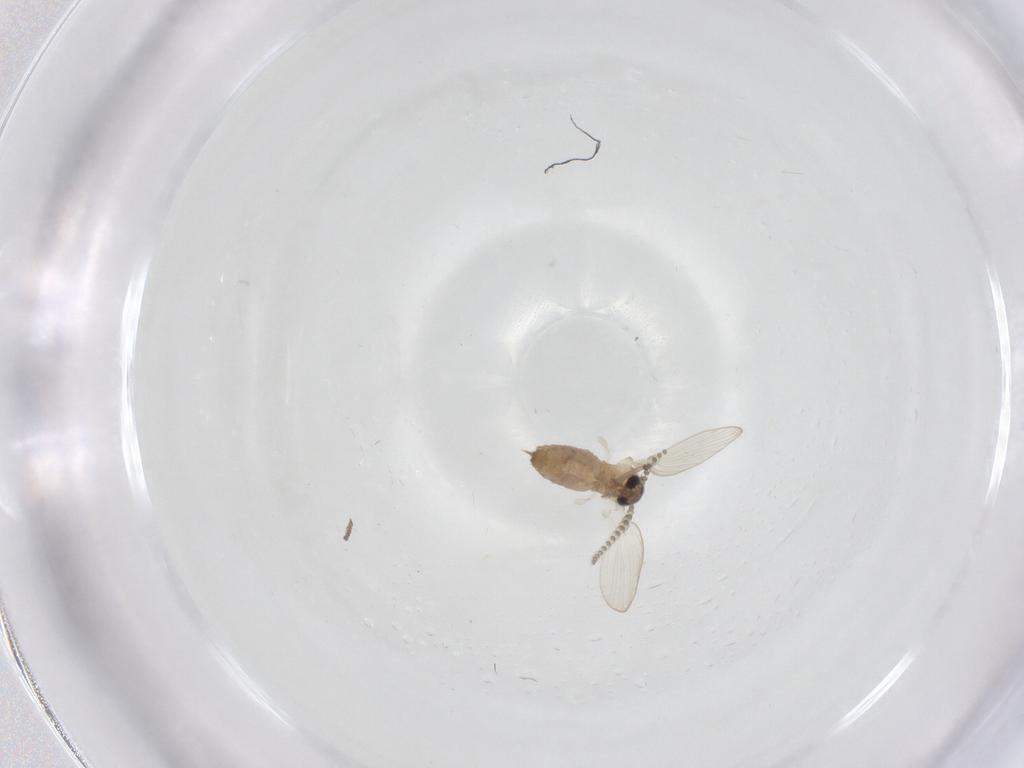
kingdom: Animalia
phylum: Arthropoda
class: Insecta
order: Diptera
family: Psychodidae
